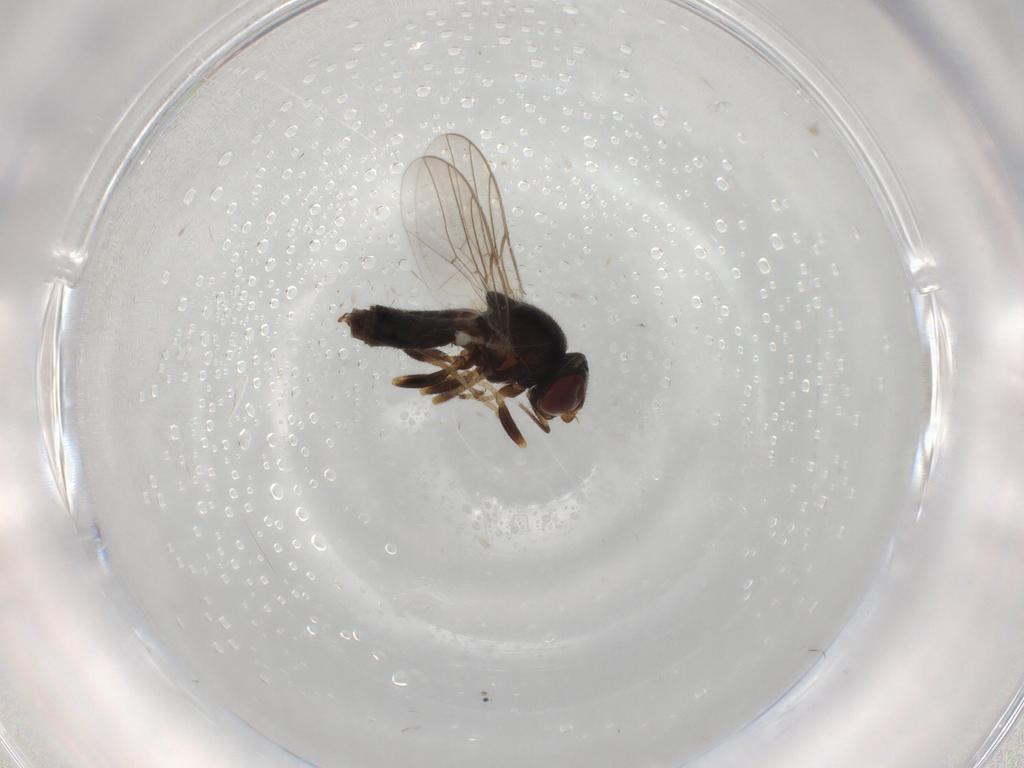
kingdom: Animalia
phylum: Arthropoda
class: Insecta
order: Diptera
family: Chloropidae
